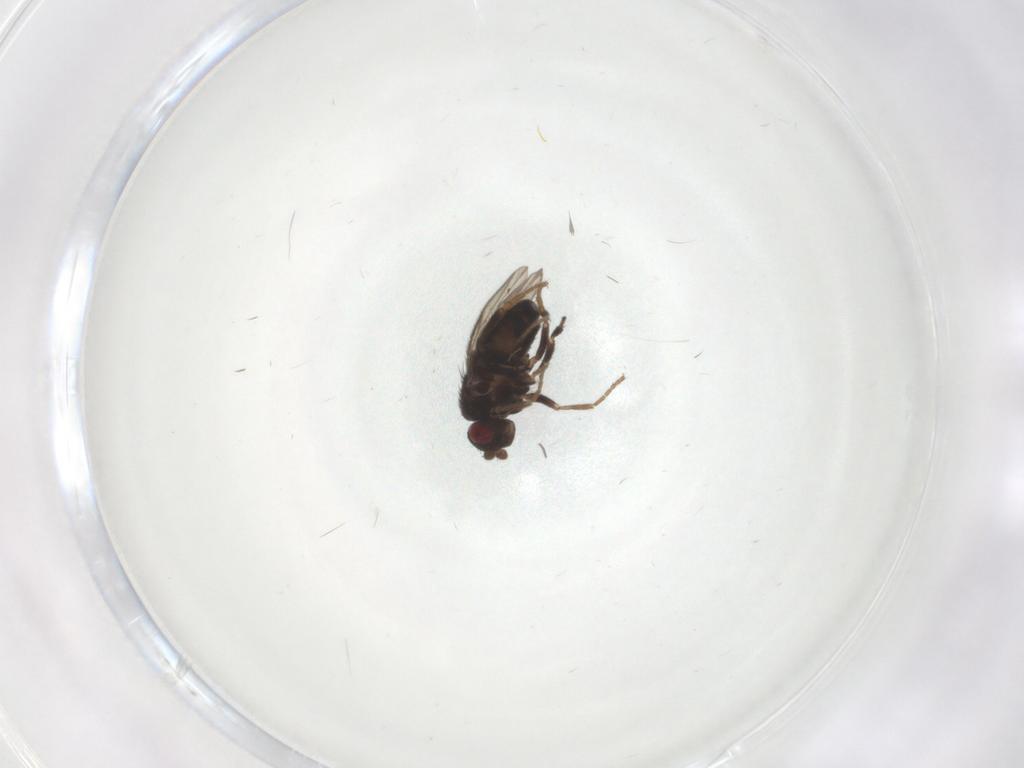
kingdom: Animalia
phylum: Arthropoda
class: Insecta
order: Diptera
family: Sphaeroceridae
